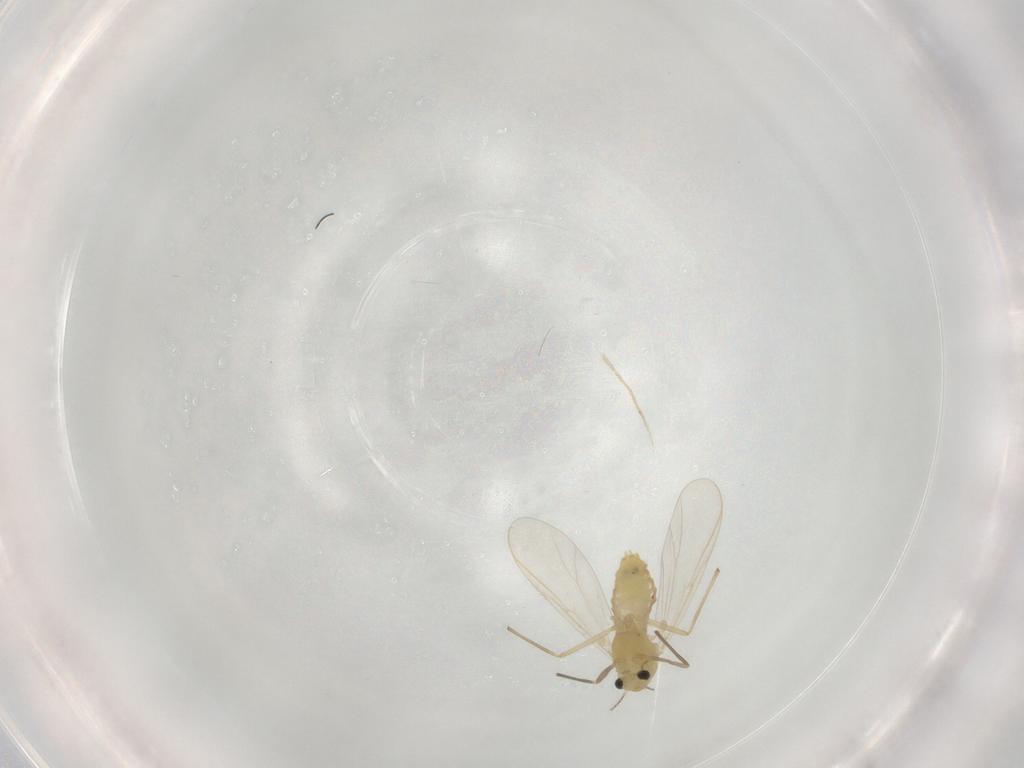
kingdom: Animalia
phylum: Arthropoda
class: Insecta
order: Diptera
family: Chironomidae
